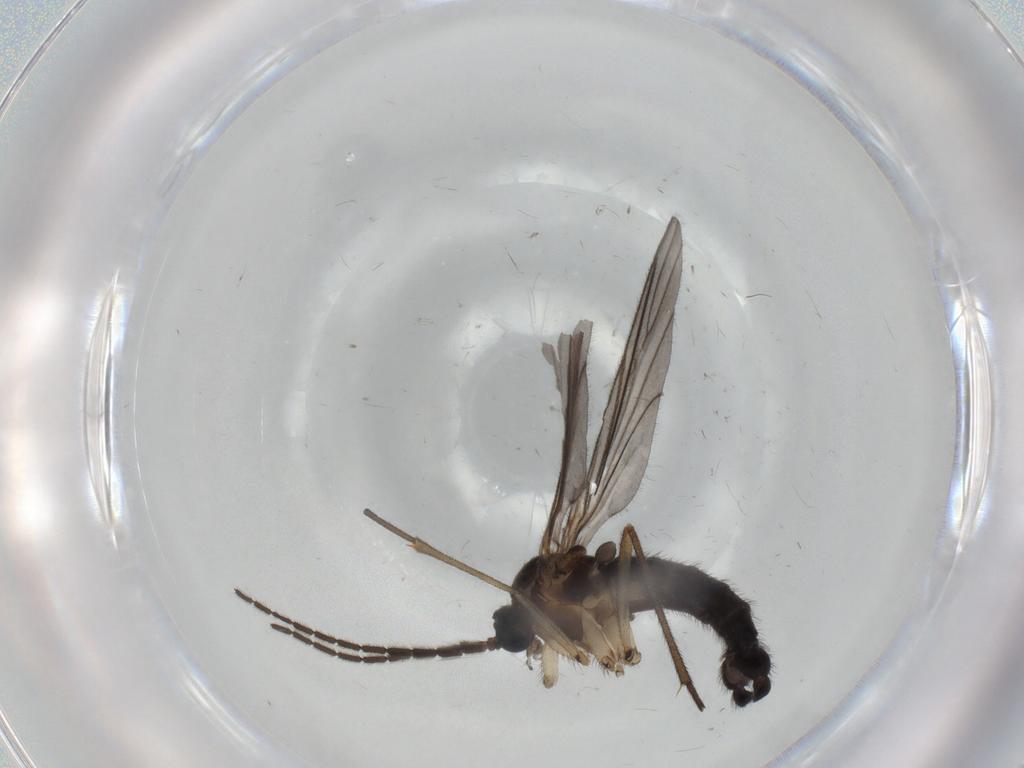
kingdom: Animalia
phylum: Arthropoda
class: Insecta
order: Diptera
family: Sciaridae
